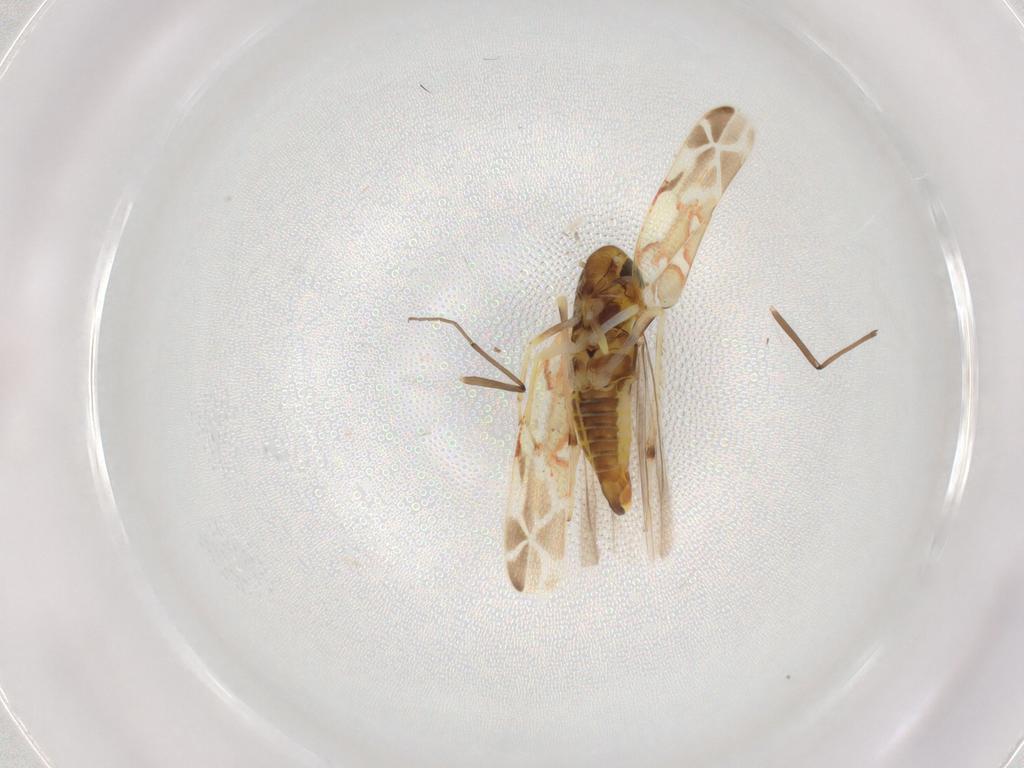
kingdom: Animalia
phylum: Arthropoda
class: Insecta
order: Hemiptera
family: Cicadellidae
